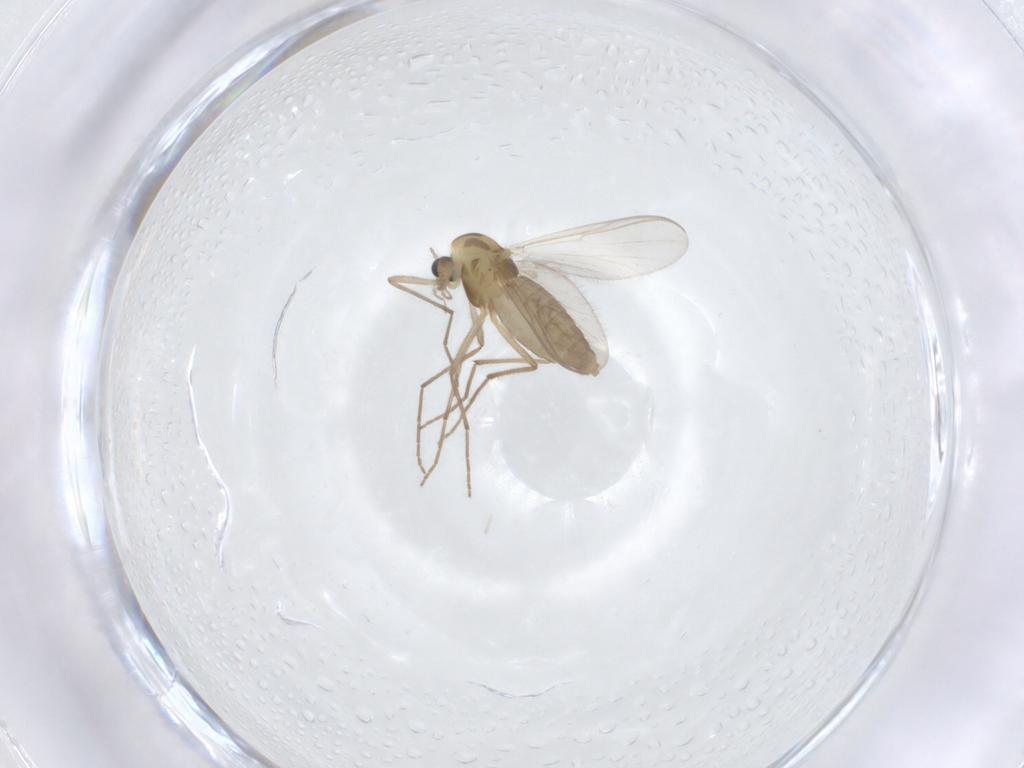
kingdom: Animalia
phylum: Arthropoda
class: Insecta
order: Diptera
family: Chironomidae
